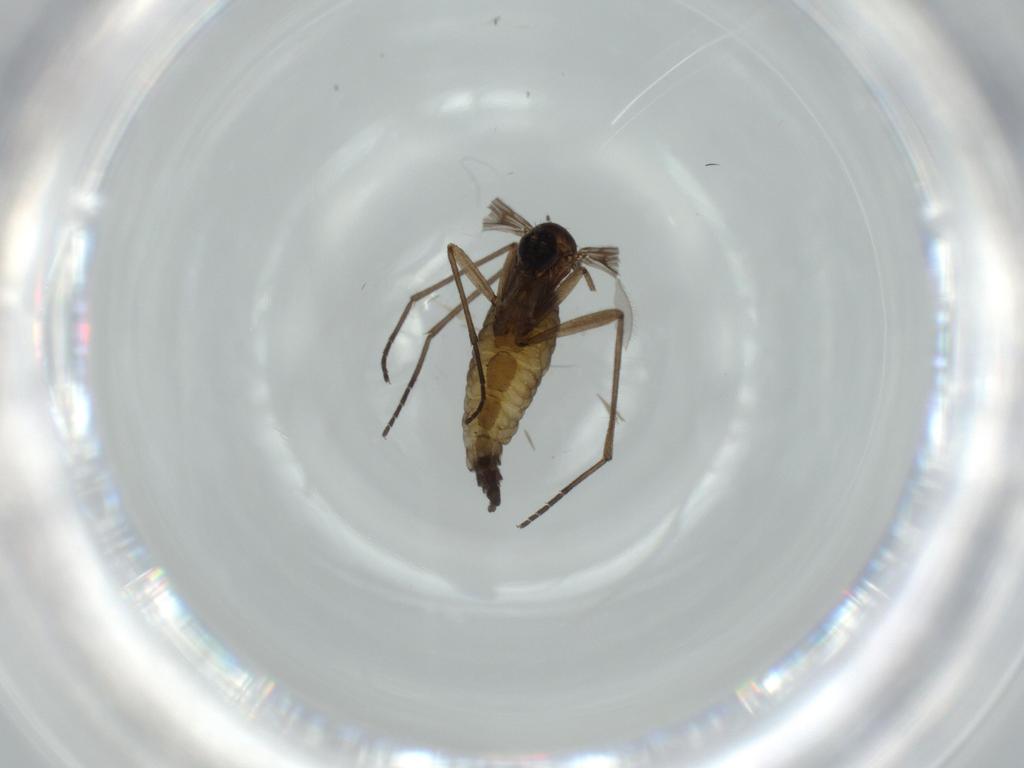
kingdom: Animalia
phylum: Arthropoda
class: Insecta
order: Diptera
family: Sciaridae
